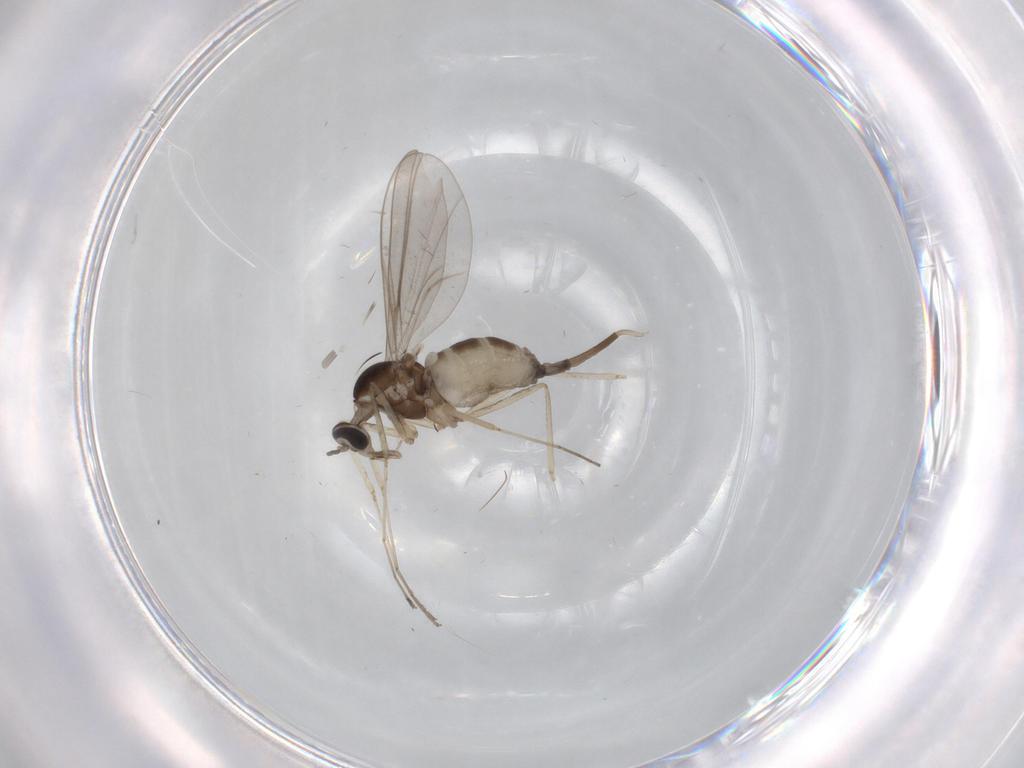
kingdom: Animalia
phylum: Arthropoda
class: Insecta
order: Diptera
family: Cecidomyiidae
